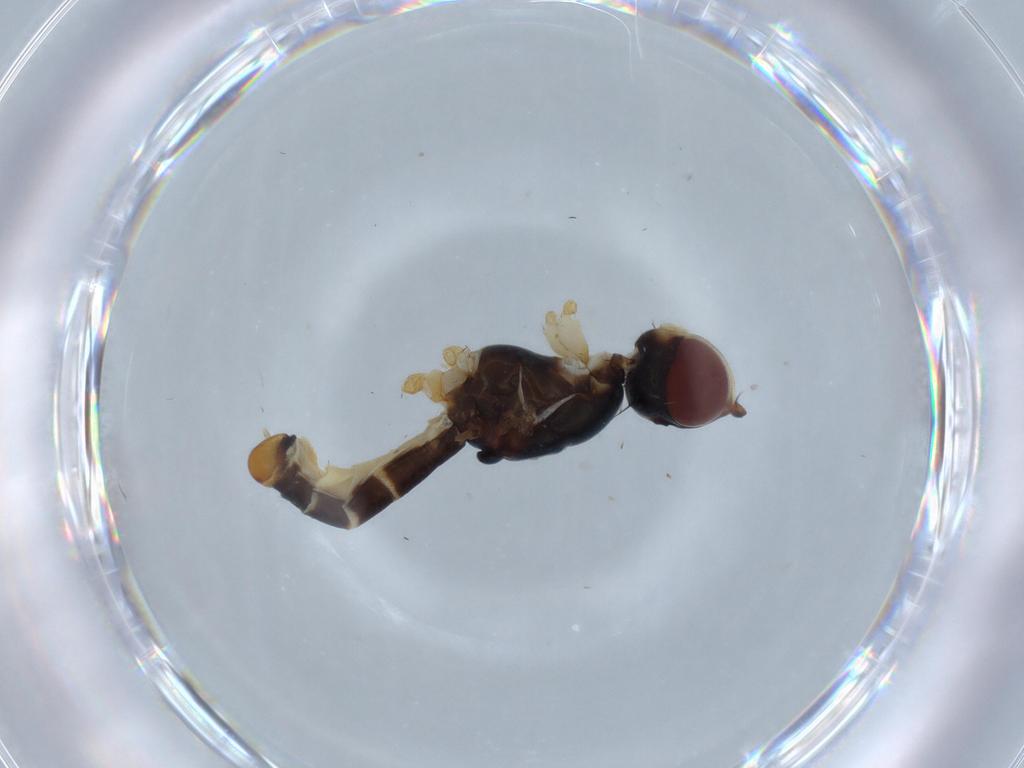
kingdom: Animalia
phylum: Arthropoda
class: Insecta
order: Diptera
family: Micropezidae
